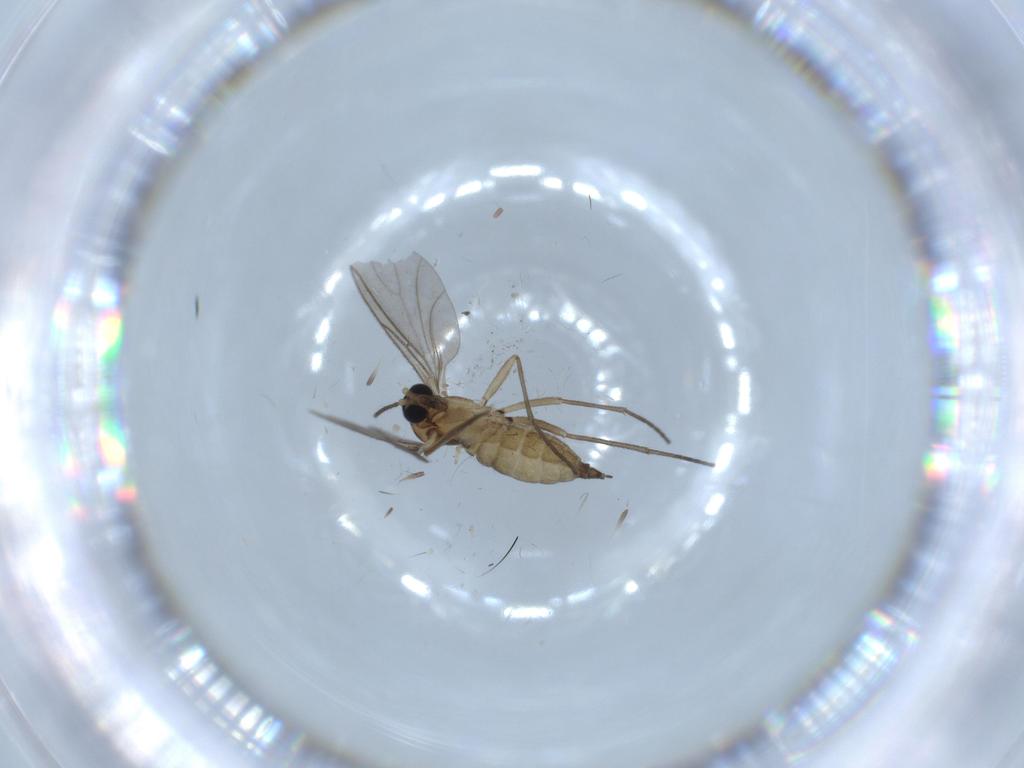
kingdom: Animalia
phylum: Arthropoda
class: Insecta
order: Diptera
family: Sciaridae
